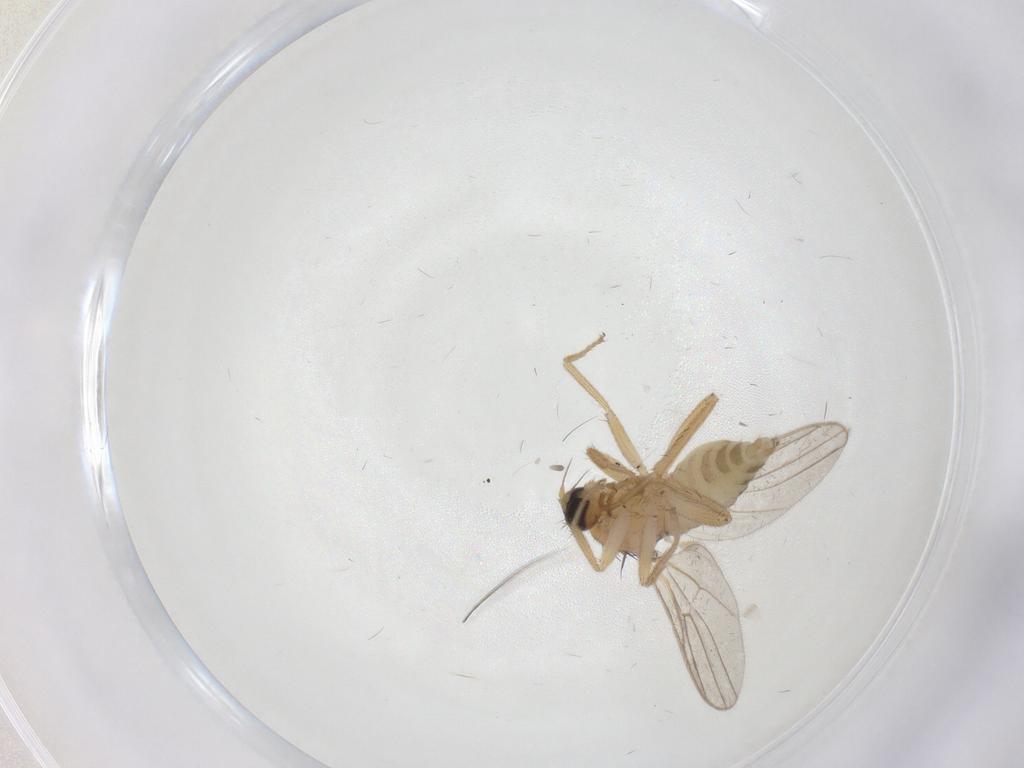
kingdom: Animalia
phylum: Arthropoda
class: Insecta
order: Diptera
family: Hybotidae
